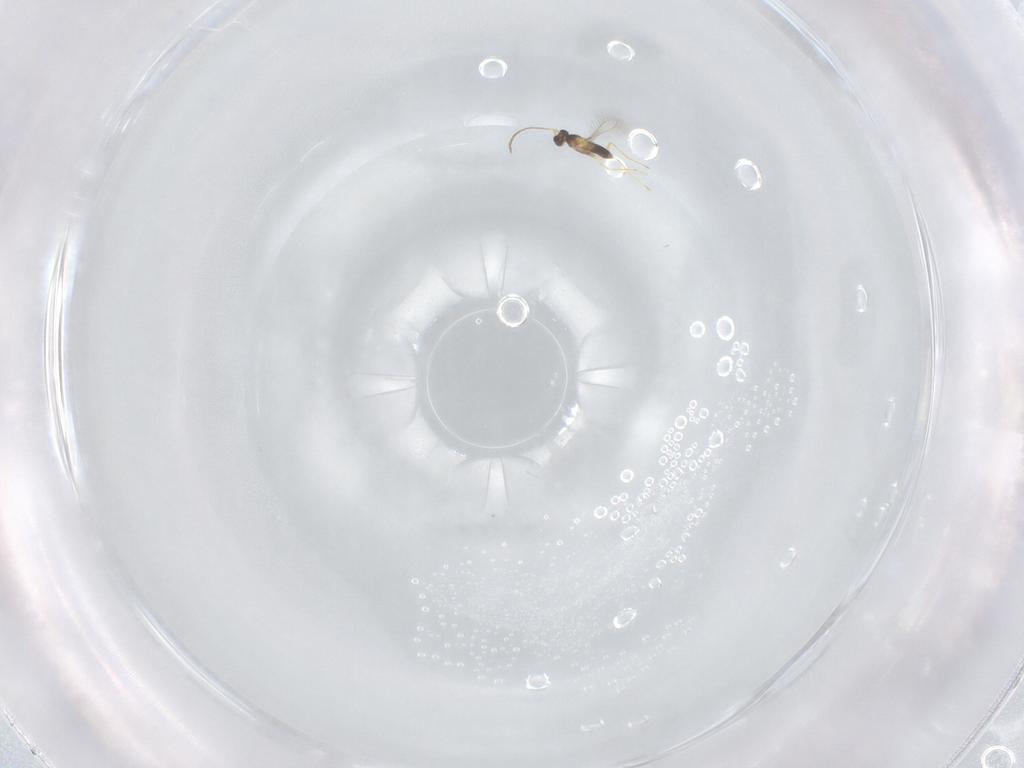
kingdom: Animalia
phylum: Arthropoda
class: Insecta
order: Hymenoptera
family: Mymaridae
